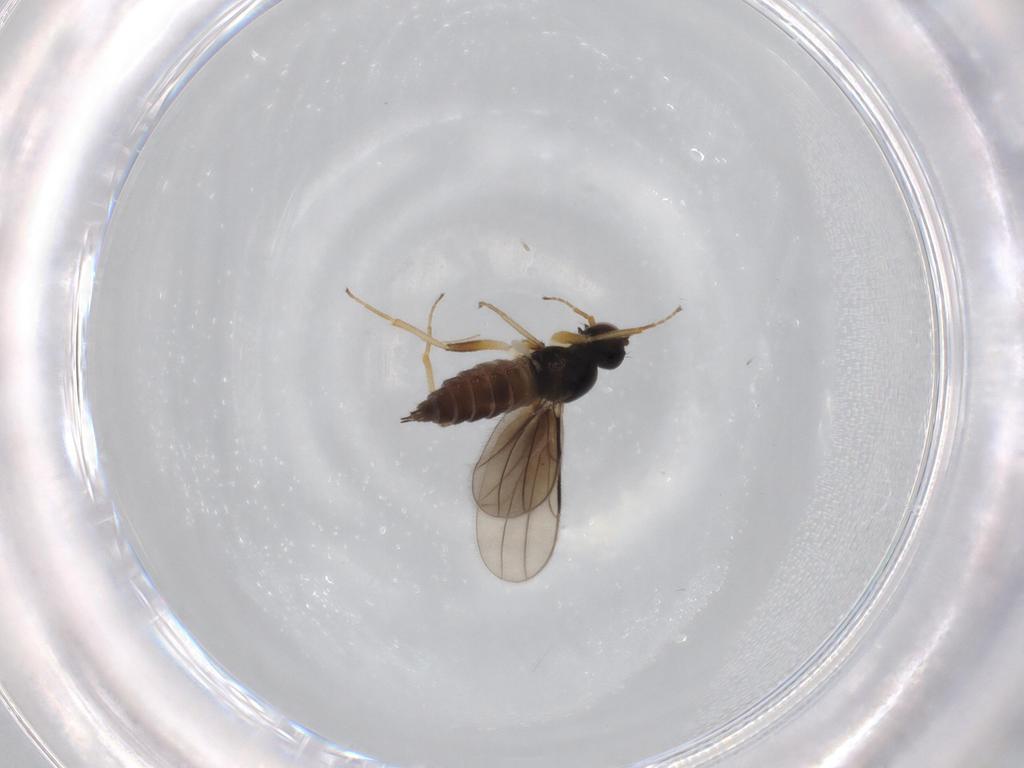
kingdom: Animalia
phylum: Arthropoda
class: Insecta
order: Diptera
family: Hybotidae
